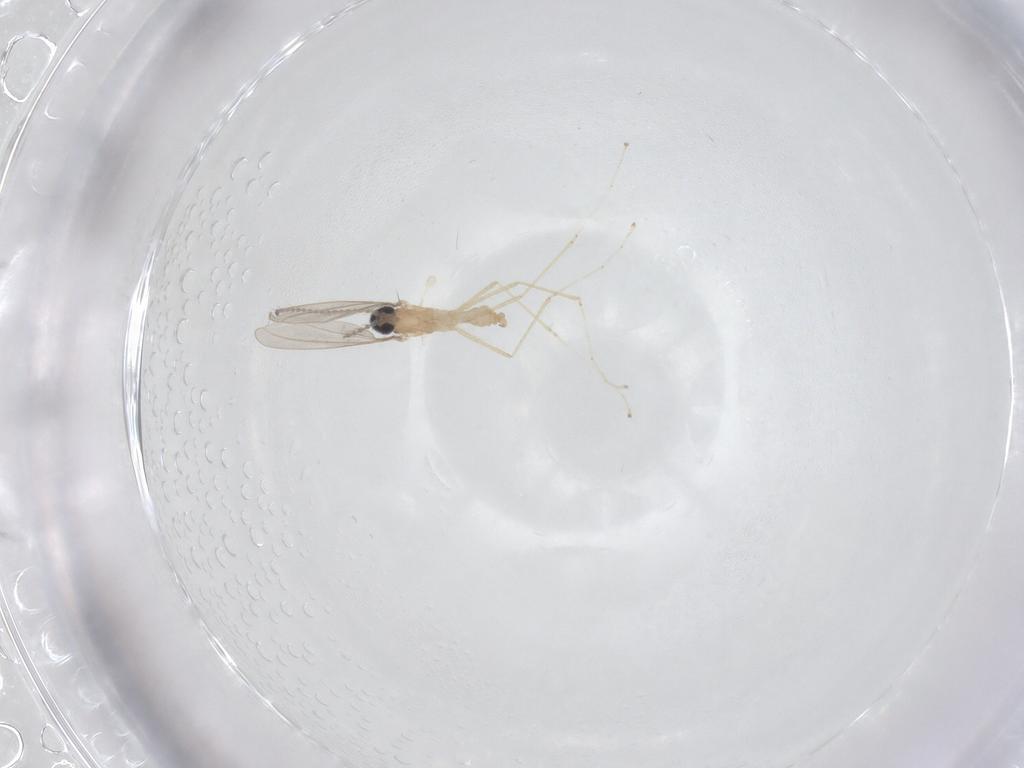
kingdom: Animalia
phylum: Arthropoda
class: Insecta
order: Diptera
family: Cecidomyiidae
